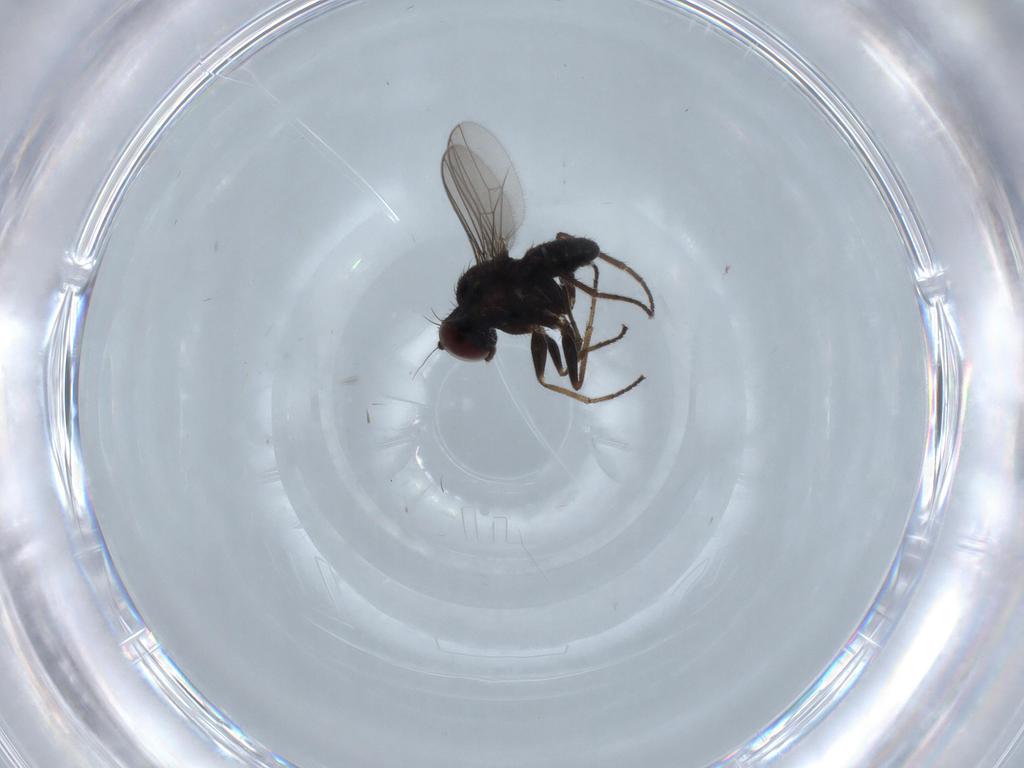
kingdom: Animalia
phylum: Arthropoda
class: Insecta
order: Diptera
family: Dolichopodidae
